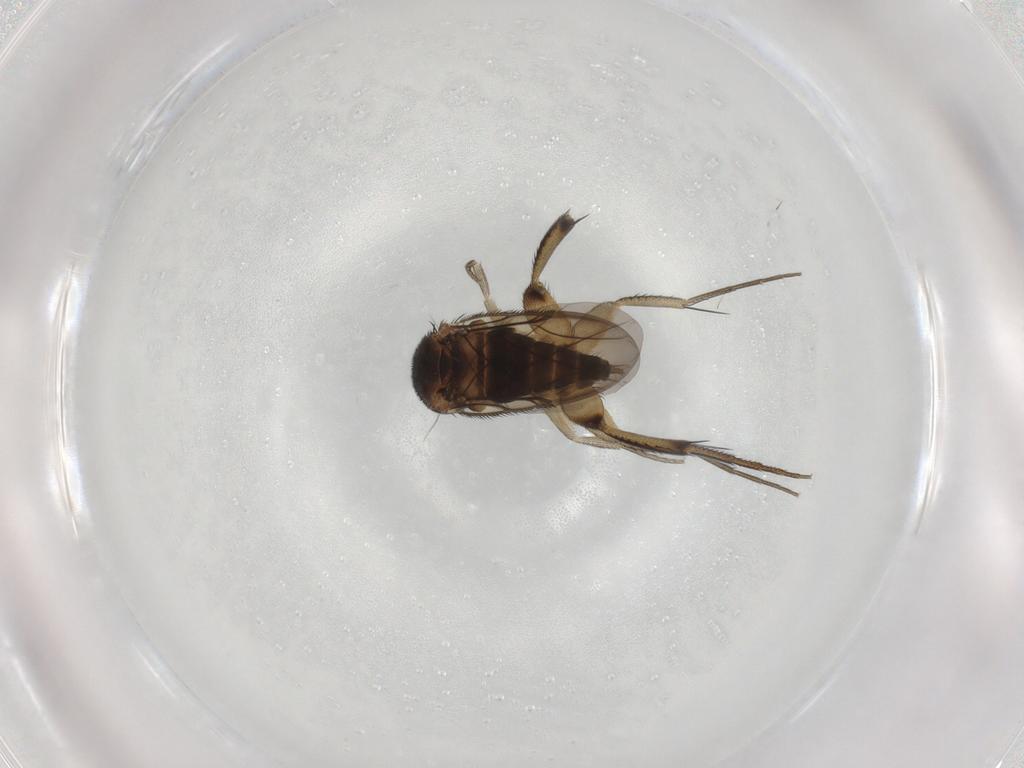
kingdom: Animalia
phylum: Arthropoda
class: Insecta
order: Diptera
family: Phoridae
